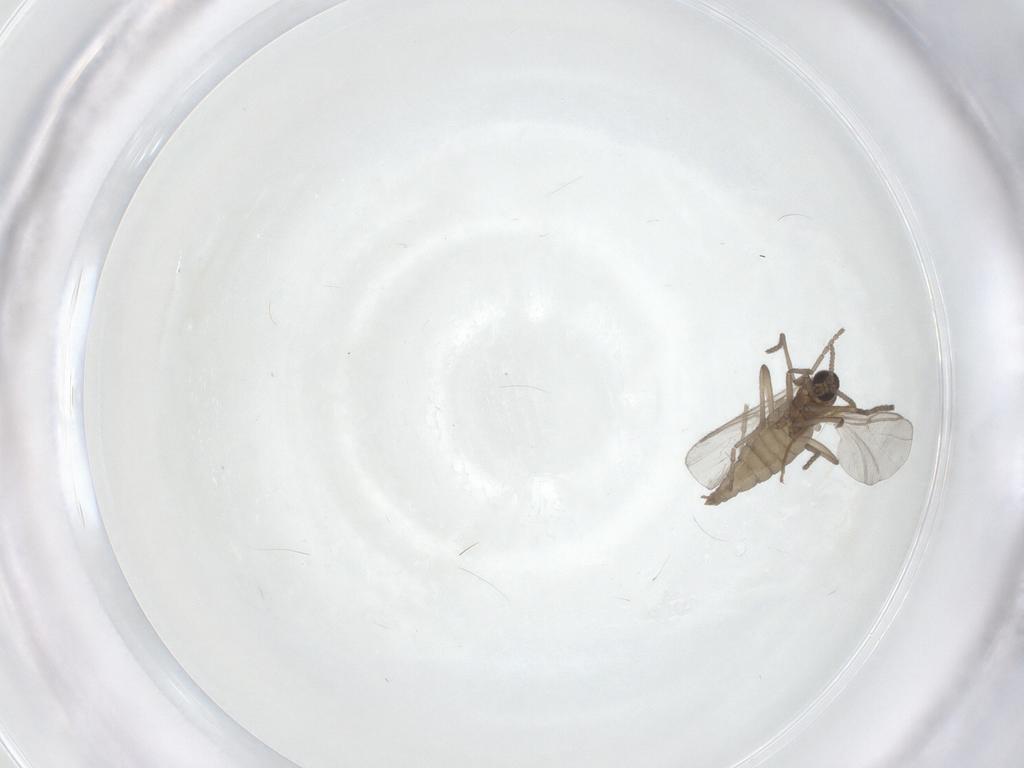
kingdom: Animalia
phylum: Arthropoda
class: Insecta
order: Diptera
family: Cecidomyiidae
